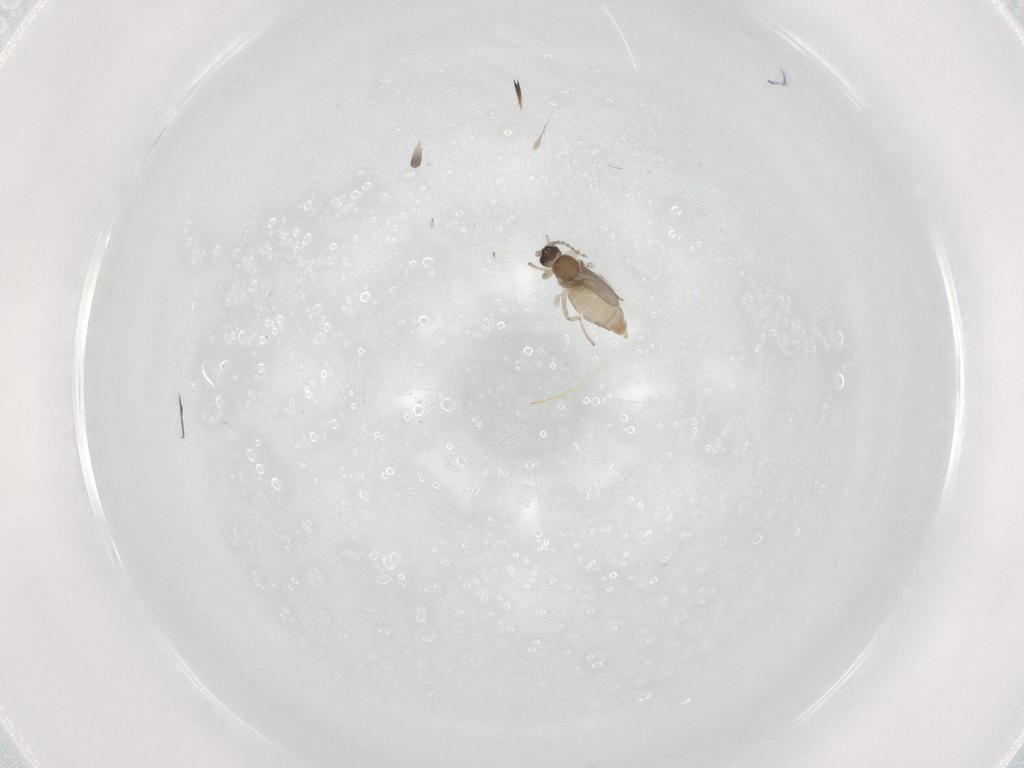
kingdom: Animalia
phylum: Arthropoda
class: Insecta
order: Diptera
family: Cecidomyiidae
